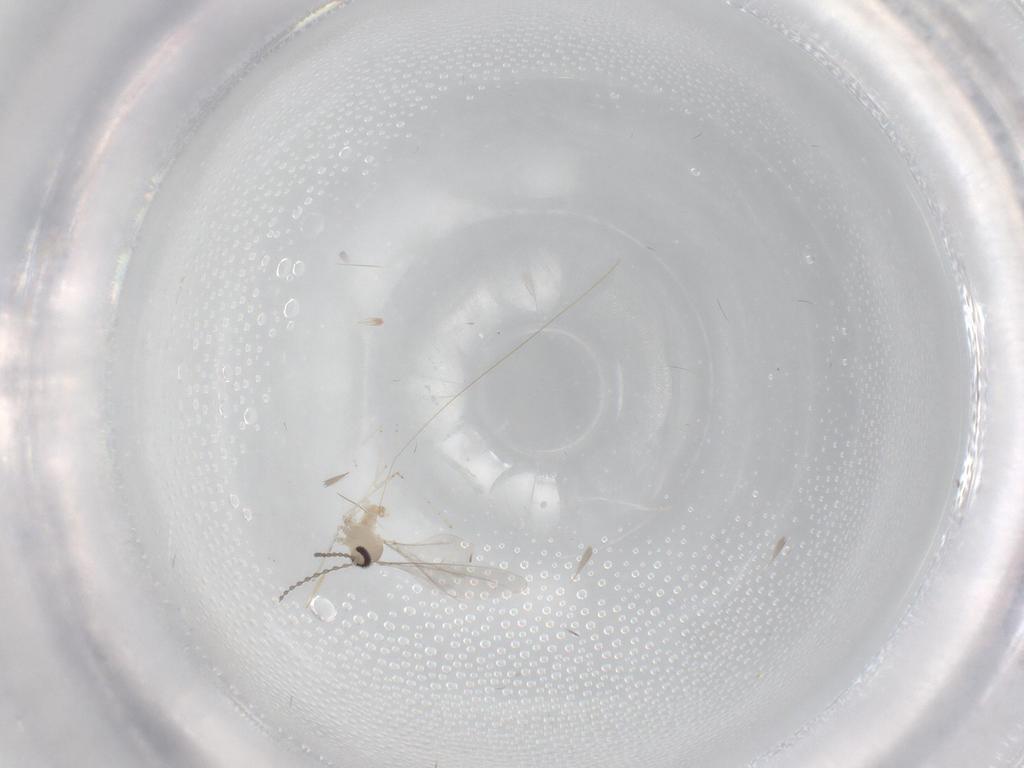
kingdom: Animalia
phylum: Arthropoda
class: Insecta
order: Diptera
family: Cecidomyiidae
